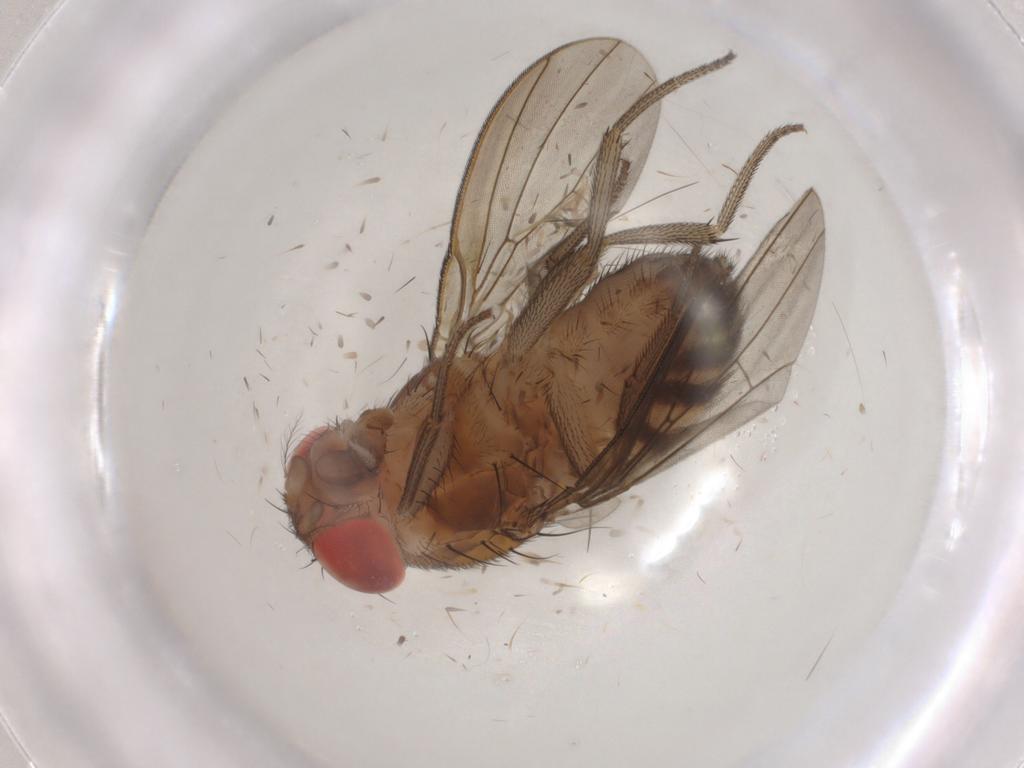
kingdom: Animalia
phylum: Arthropoda
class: Insecta
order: Diptera
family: Drosophilidae
